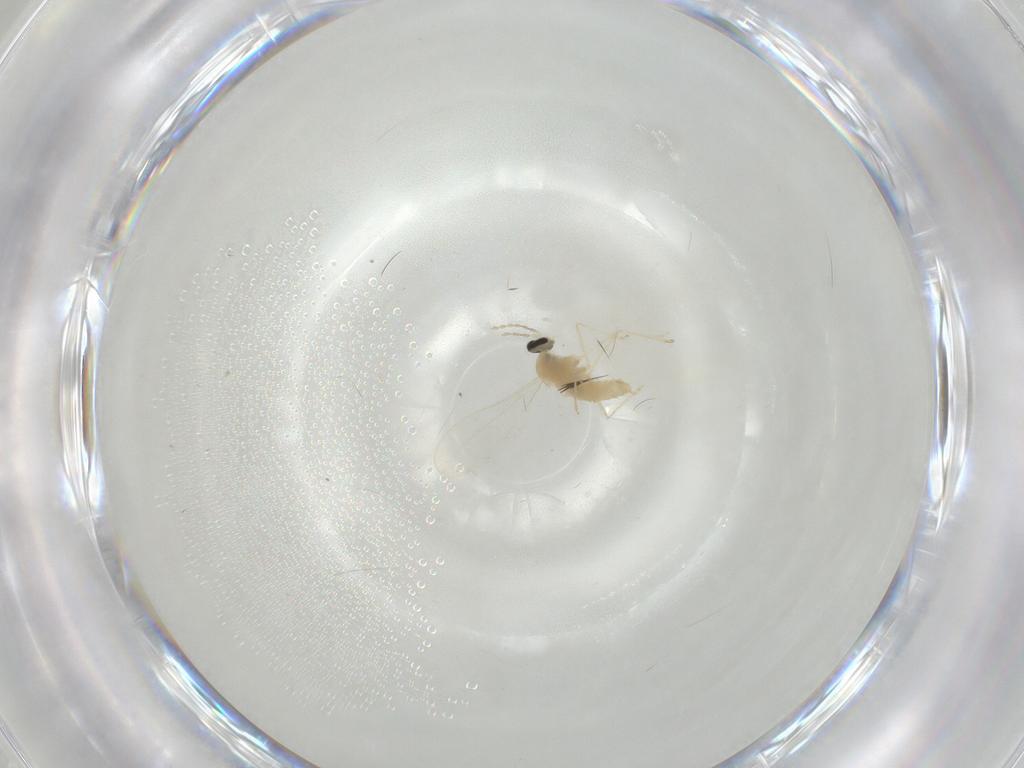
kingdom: Animalia
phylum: Arthropoda
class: Insecta
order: Diptera
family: Cecidomyiidae
